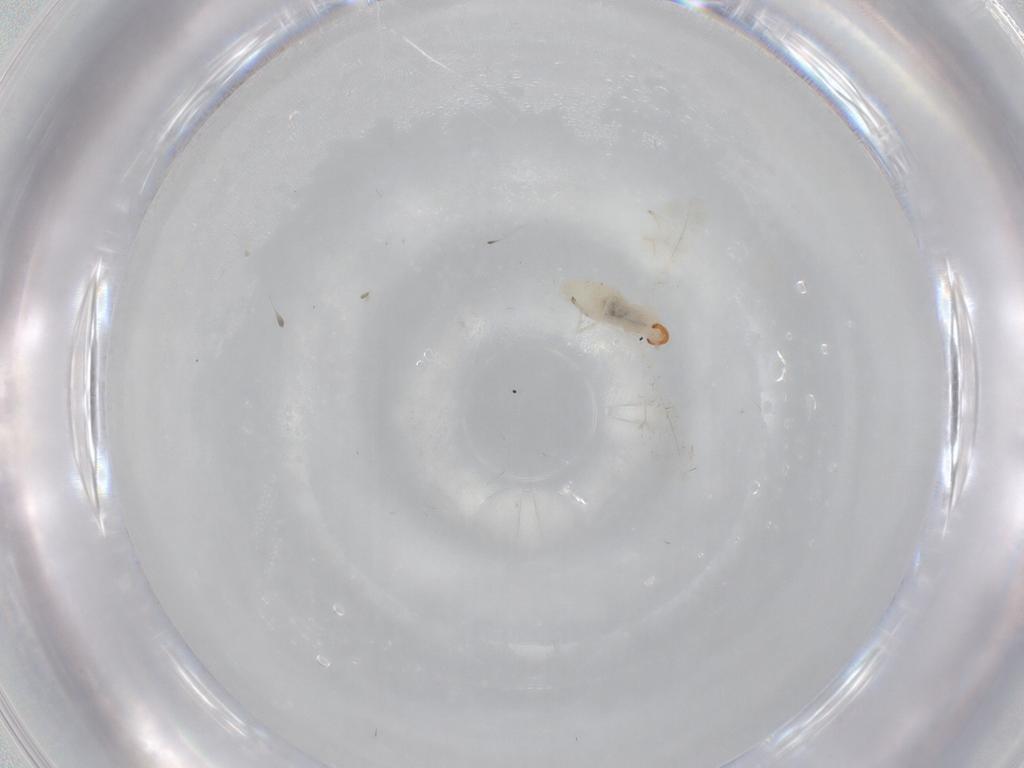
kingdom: Animalia
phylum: Arthropoda
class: Insecta
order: Diptera
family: Cecidomyiidae
